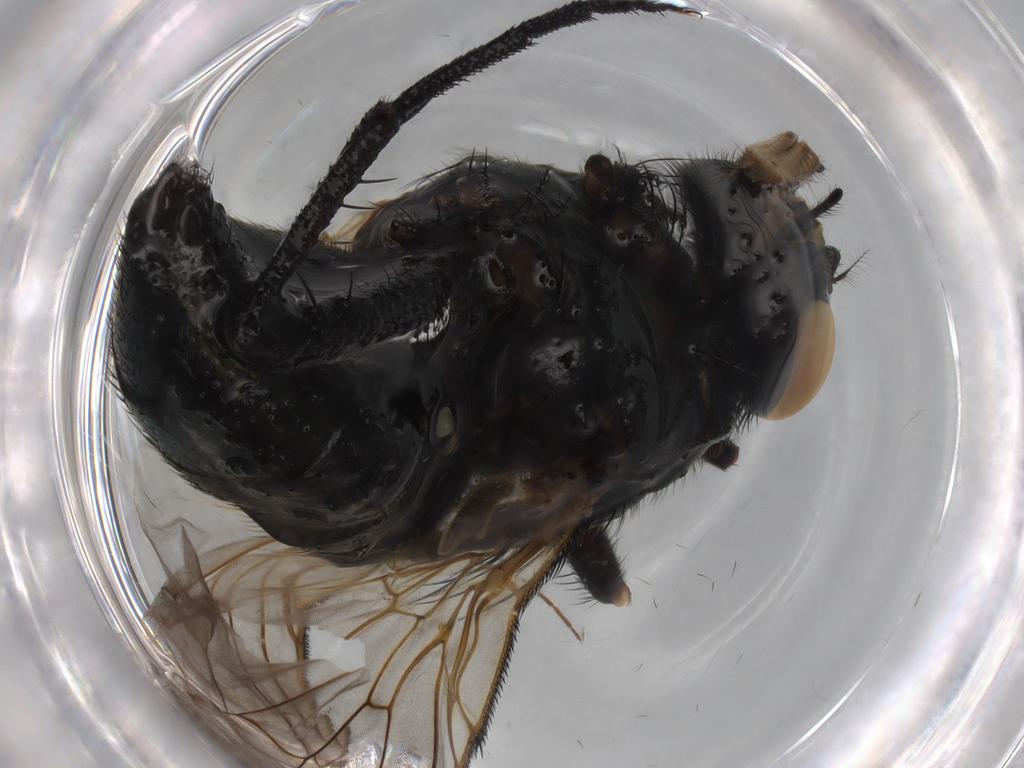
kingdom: Animalia
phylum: Arthropoda
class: Insecta
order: Diptera
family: Muscidae
